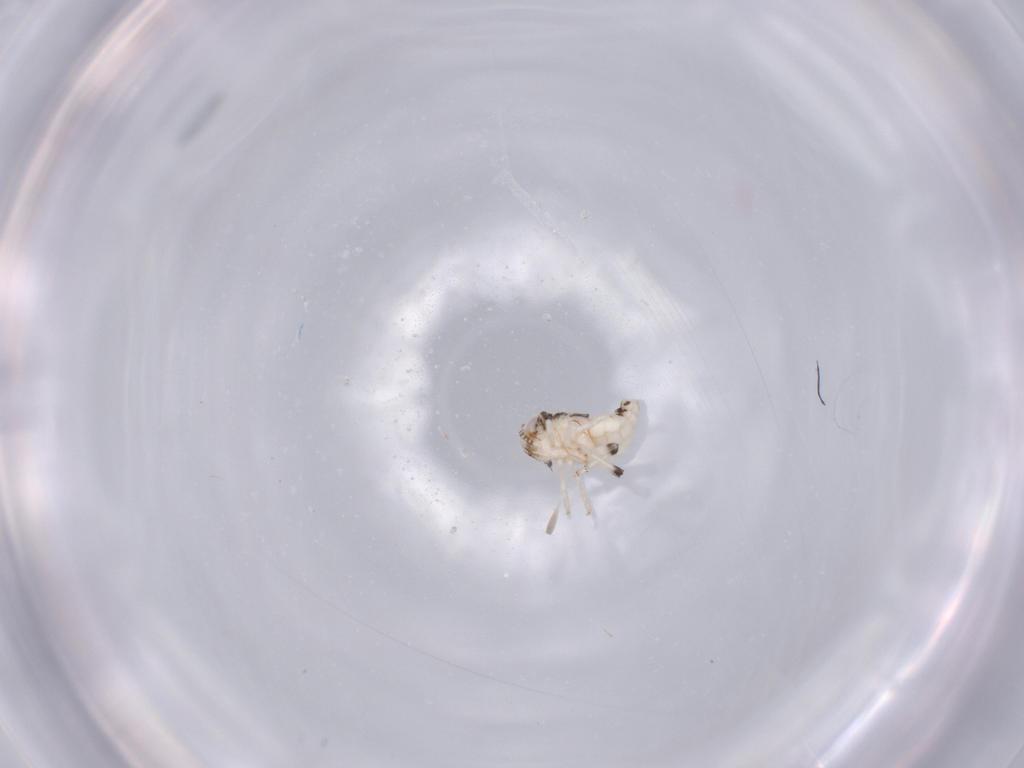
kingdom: Animalia
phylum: Arthropoda
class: Insecta
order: Hemiptera
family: Nogodinidae
